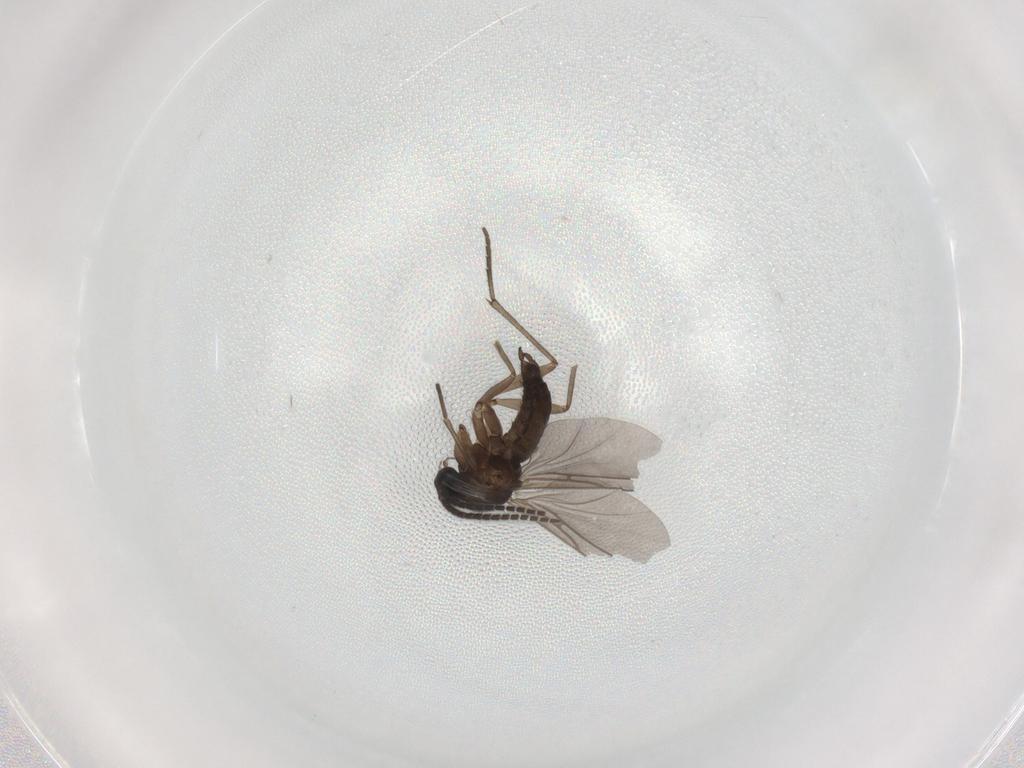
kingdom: Animalia
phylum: Arthropoda
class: Insecta
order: Diptera
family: Sciaridae
